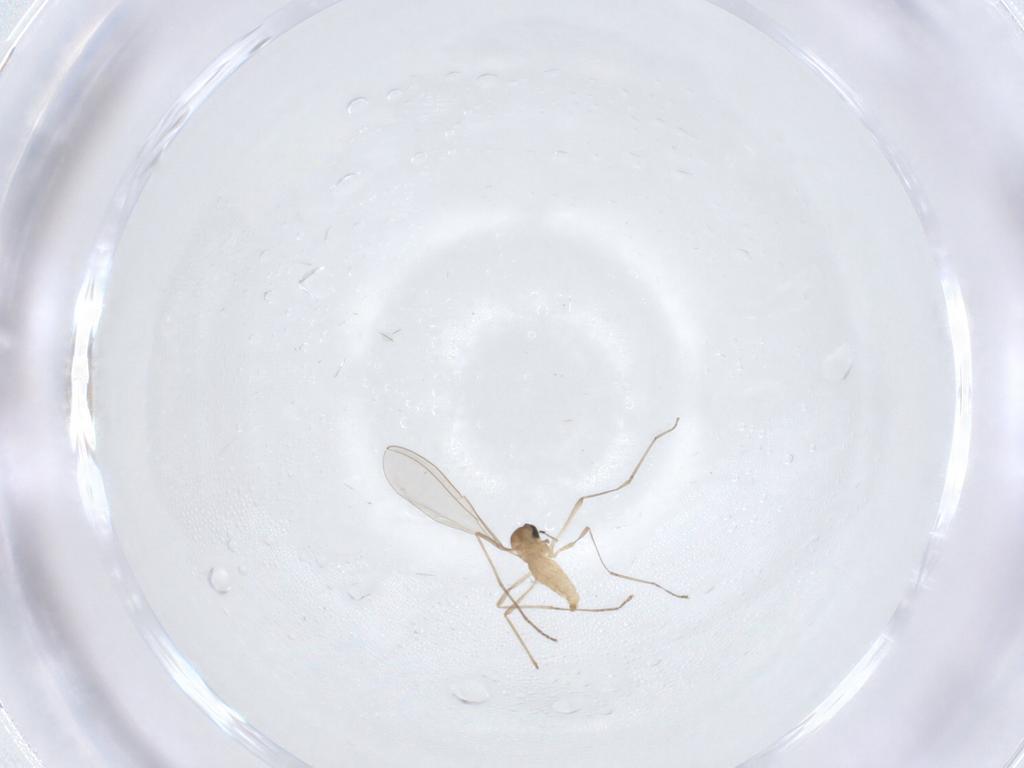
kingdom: Animalia
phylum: Arthropoda
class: Insecta
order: Diptera
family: Cecidomyiidae
